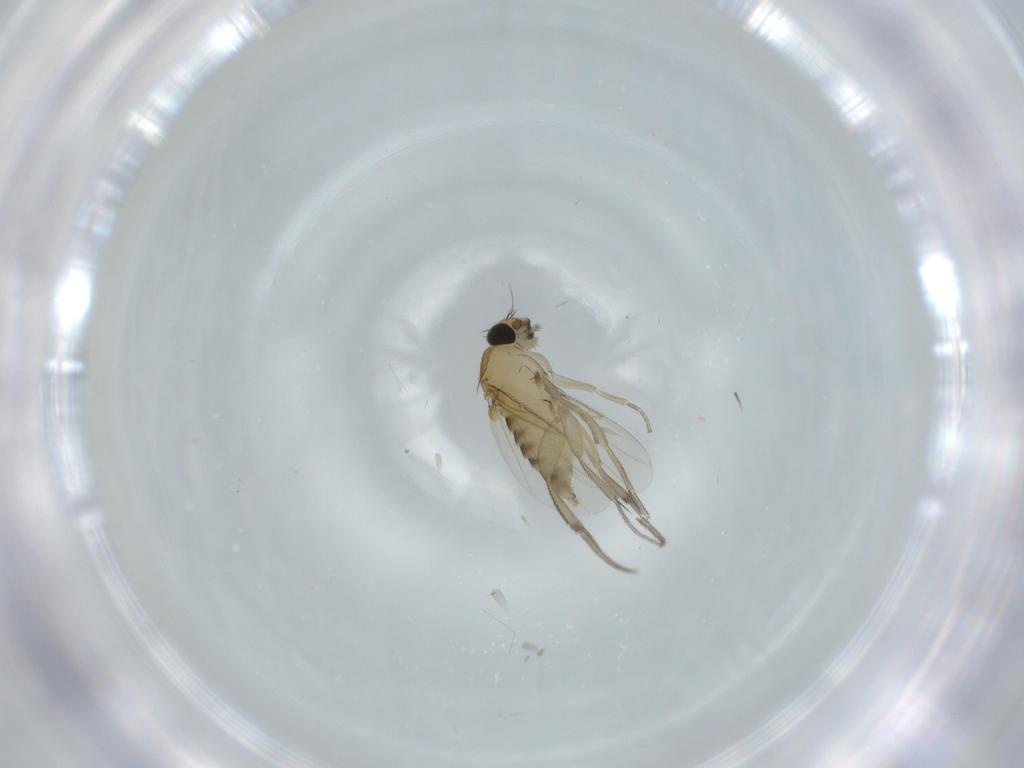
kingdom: Animalia
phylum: Arthropoda
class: Insecta
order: Diptera
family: Phoridae
